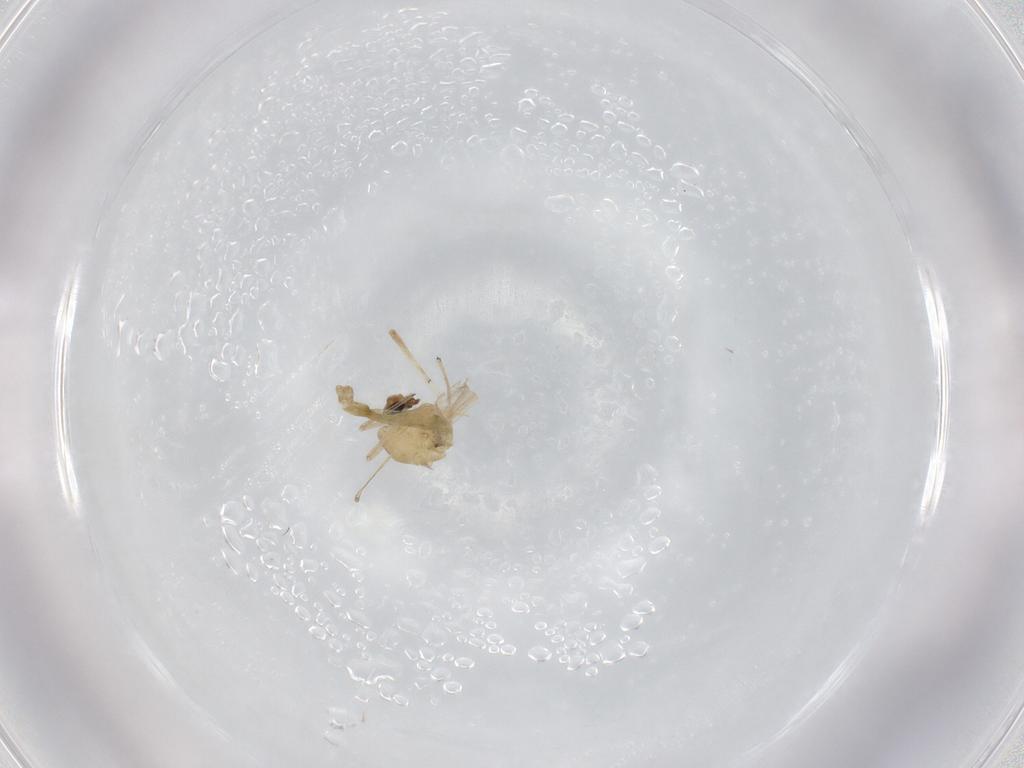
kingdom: Animalia
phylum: Arthropoda
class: Insecta
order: Diptera
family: Chironomidae
